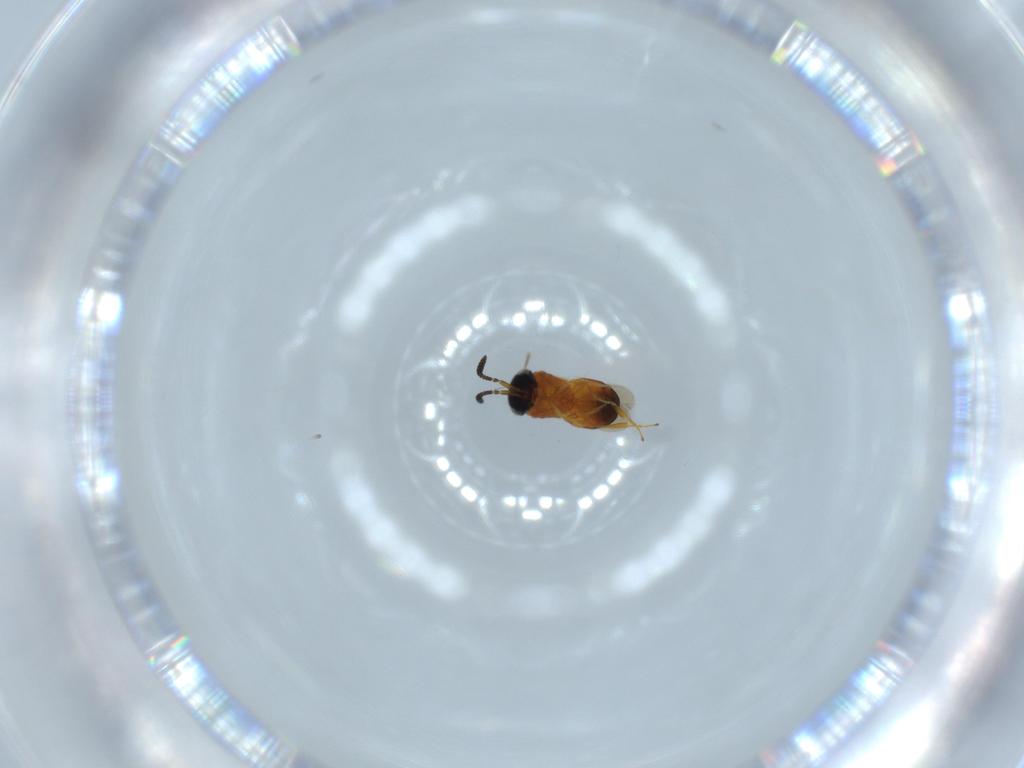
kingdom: Animalia
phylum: Arthropoda
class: Insecta
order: Hymenoptera
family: Scelionidae
